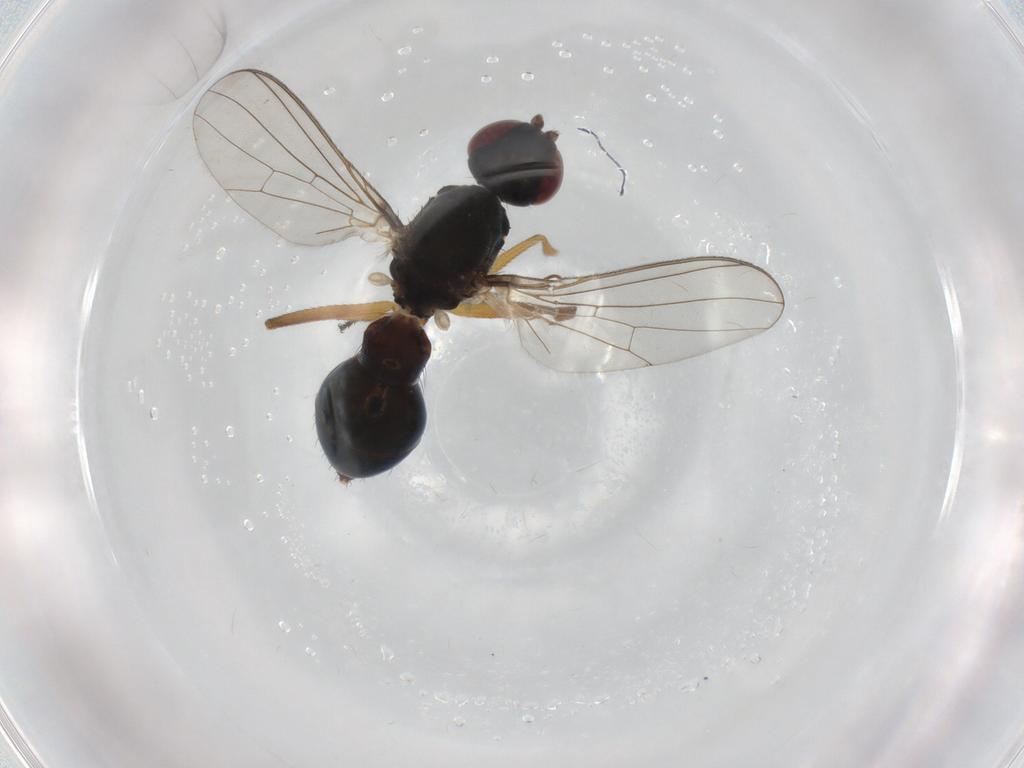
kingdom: Animalia
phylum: Arthropoda
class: Insecta
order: Diptera
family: Sepsidae
